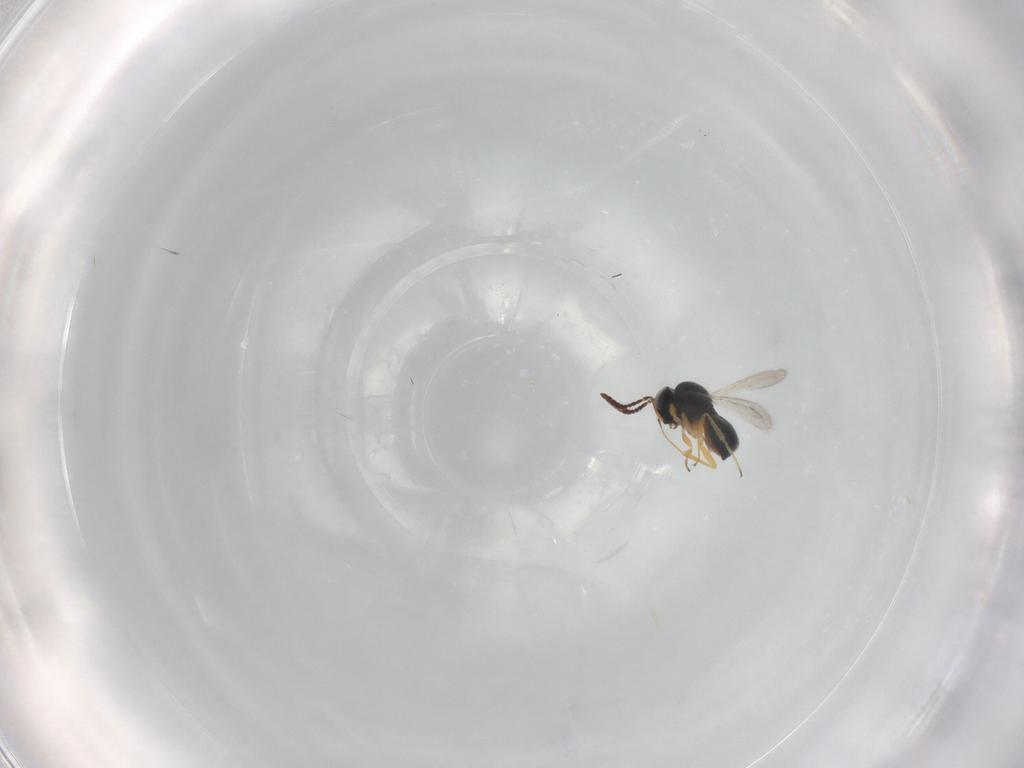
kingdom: Animalia
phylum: Arthropoda
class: Insecta
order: Hymenoptera
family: Scelionidae
